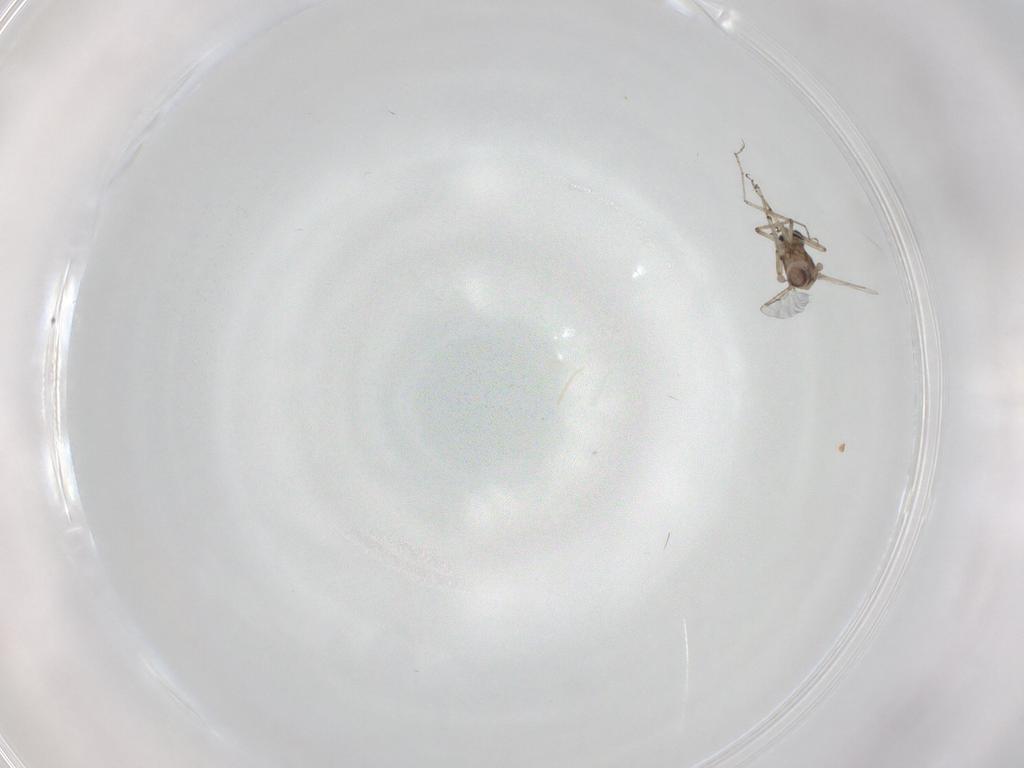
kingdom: Animalia
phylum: Arthropoda
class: Insecta
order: Diptera
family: Ceratopogonidae
